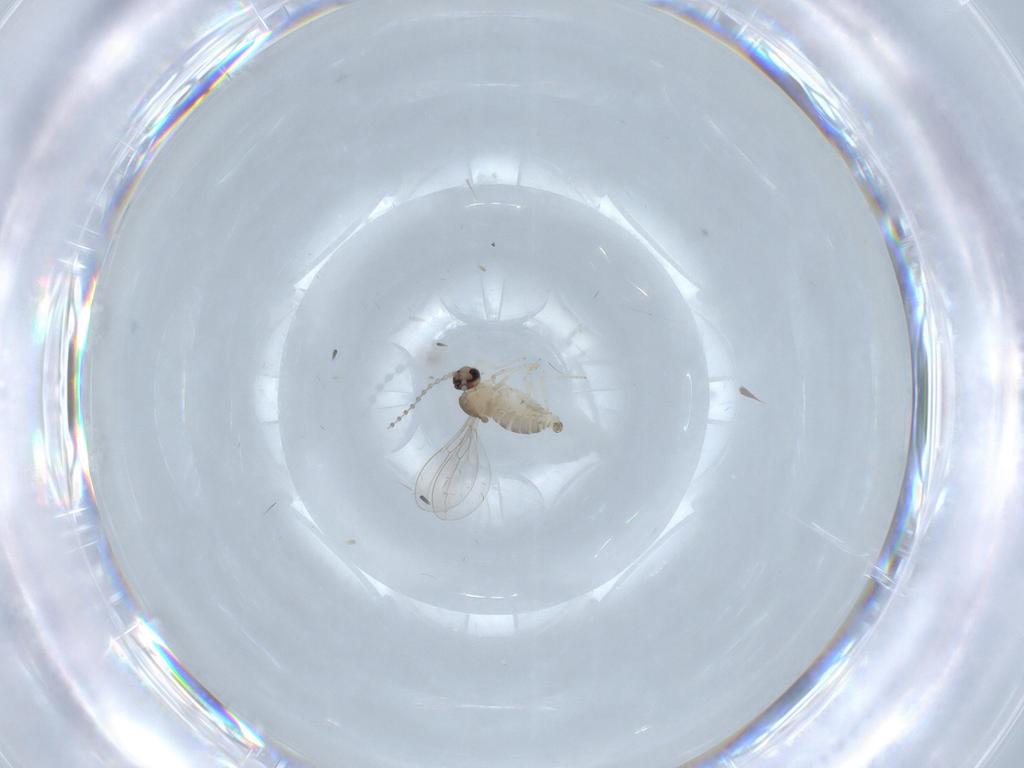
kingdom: Animalia
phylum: Arthropoda
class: Insecta
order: Diptera
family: Cecidomyiidae
